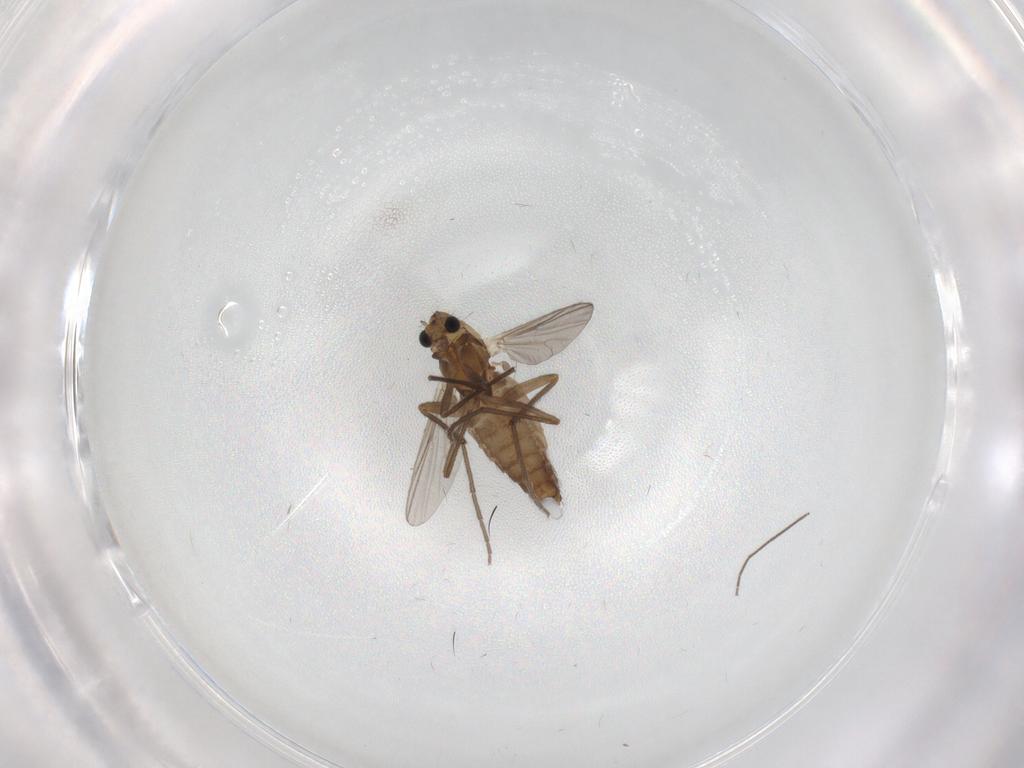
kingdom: Animalia
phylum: Arthropoda
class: Insecta
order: Diptera
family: Chironomidae
